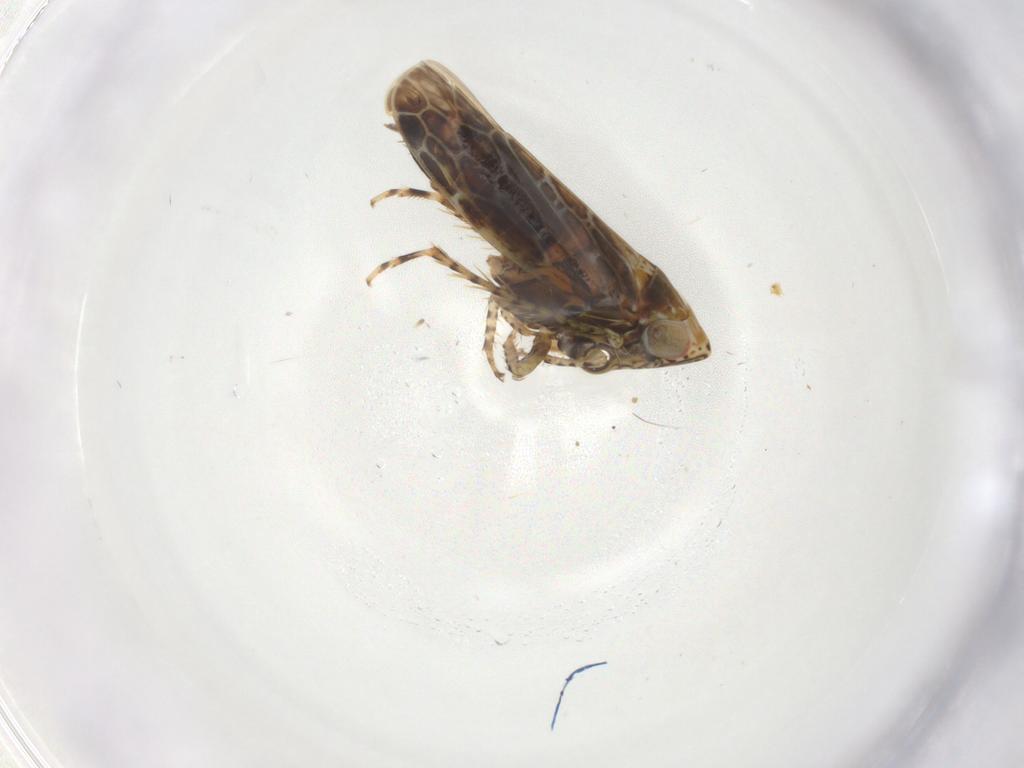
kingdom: Animalia
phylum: Arthropoda
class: Insecta
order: Hemiptera
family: Cicadellidae
